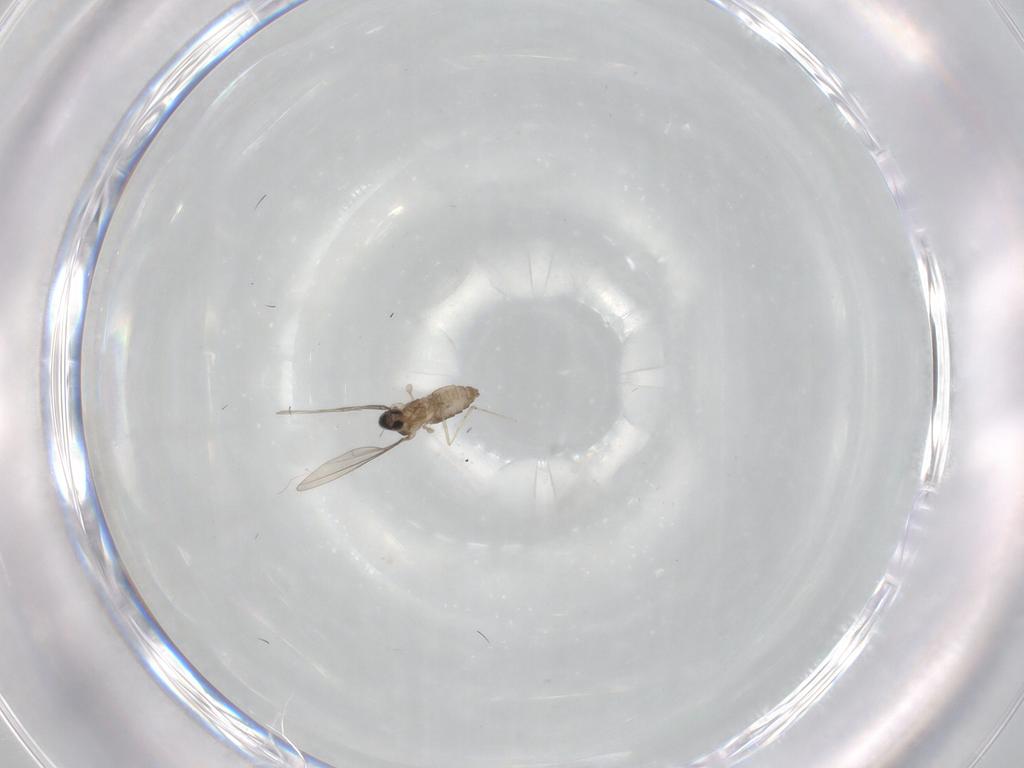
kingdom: Animalia
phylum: Arthropoda
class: Insecta
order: Diptera
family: Cecidomyiidae
